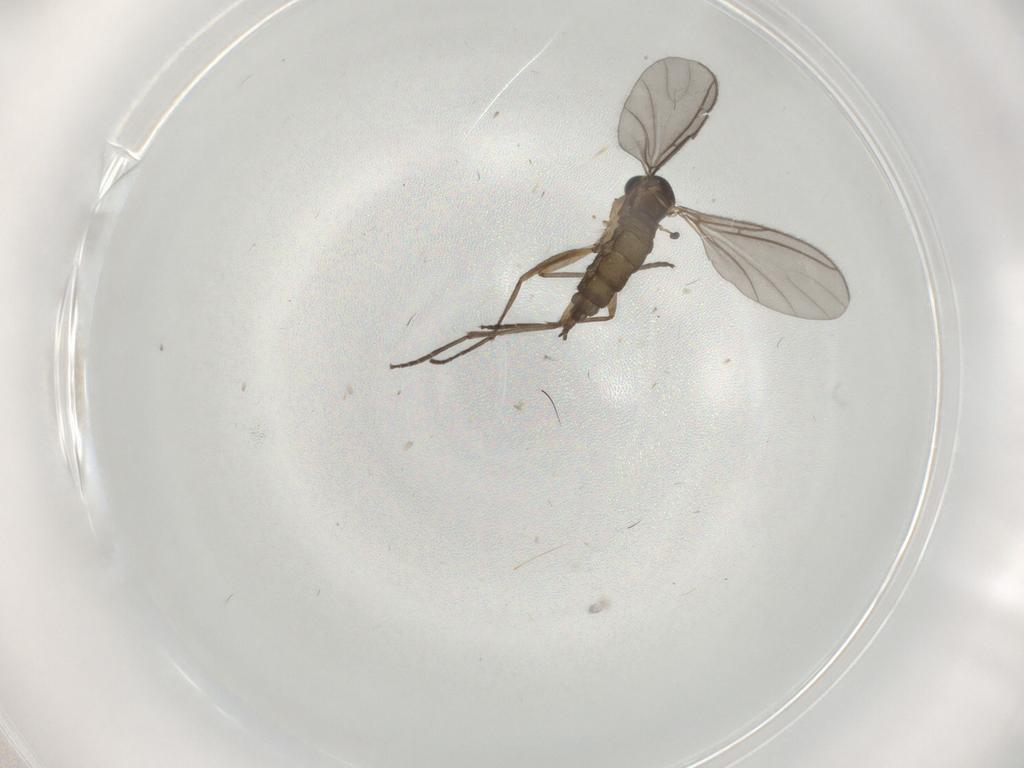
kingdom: Animalia
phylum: Arthropoda
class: Insecta
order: Diptera
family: Sciaridae
